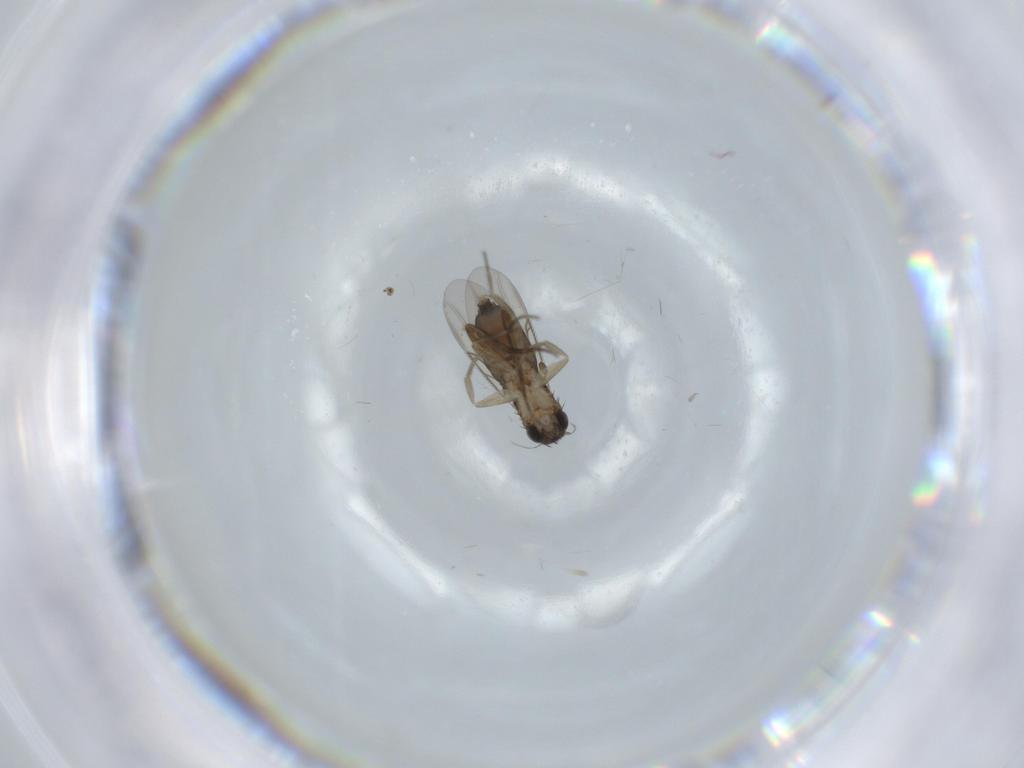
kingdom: Animalia
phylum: Arthropoda
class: Insecta
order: Diptera
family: Phoridae
